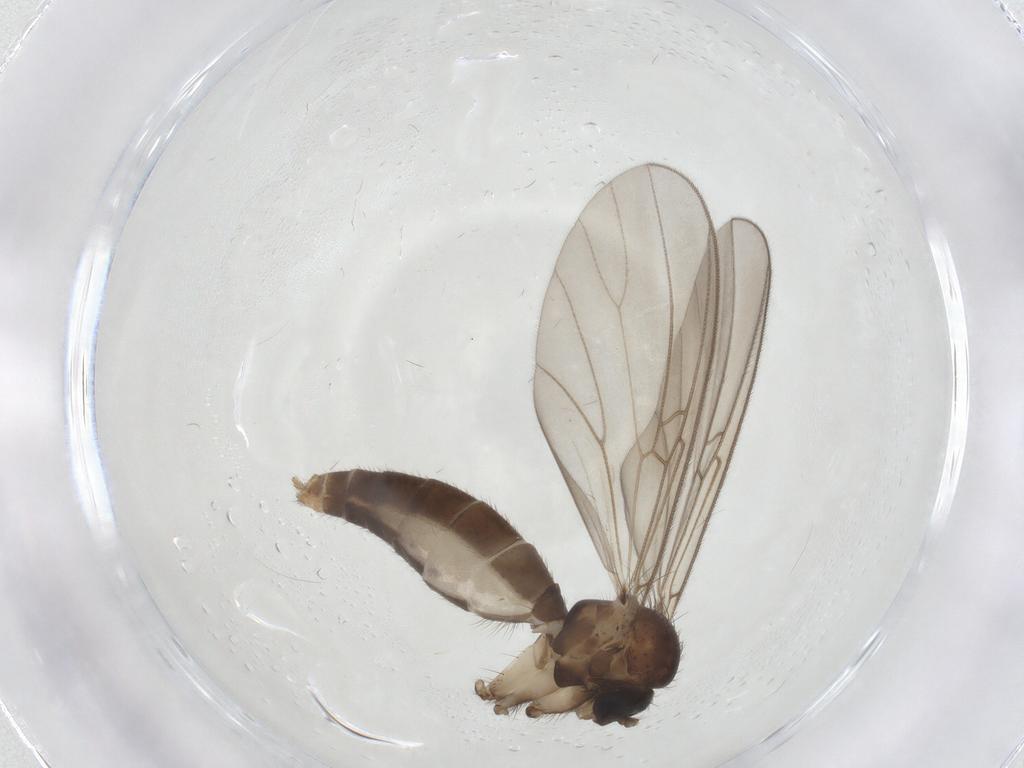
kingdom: Animalia
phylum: Arthropoda
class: Insecta
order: Diptera
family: Mycetophilidae
